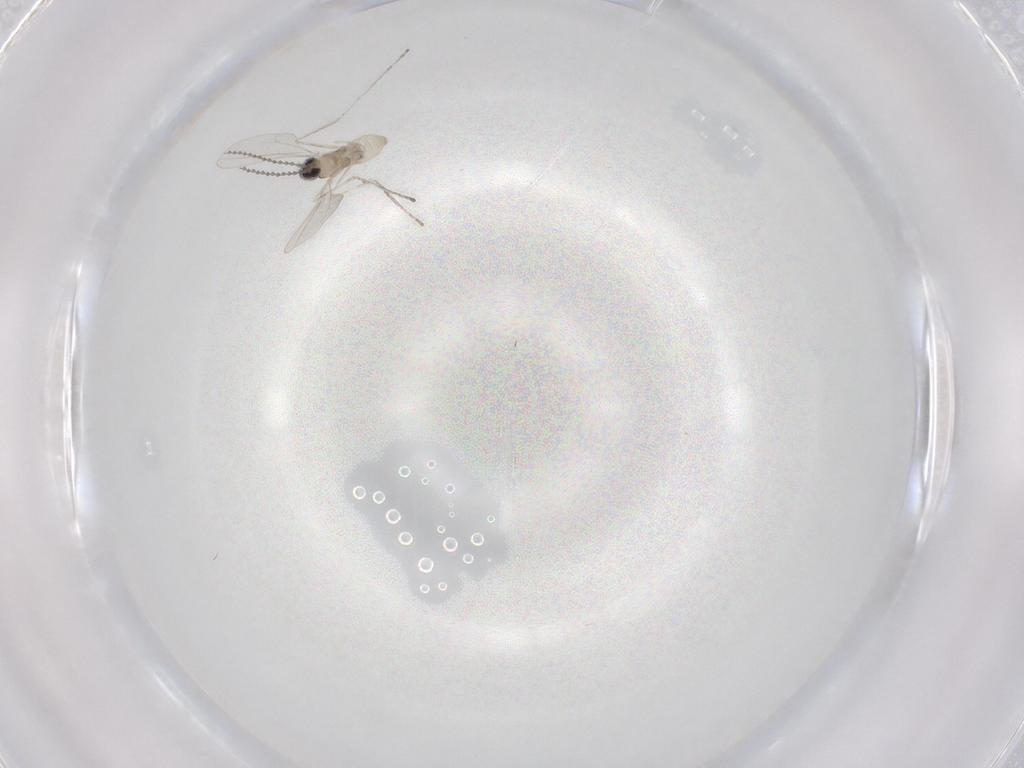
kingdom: Animalia
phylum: Arthropoda
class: Insecta
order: Diptera
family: Cecidomyiidae
